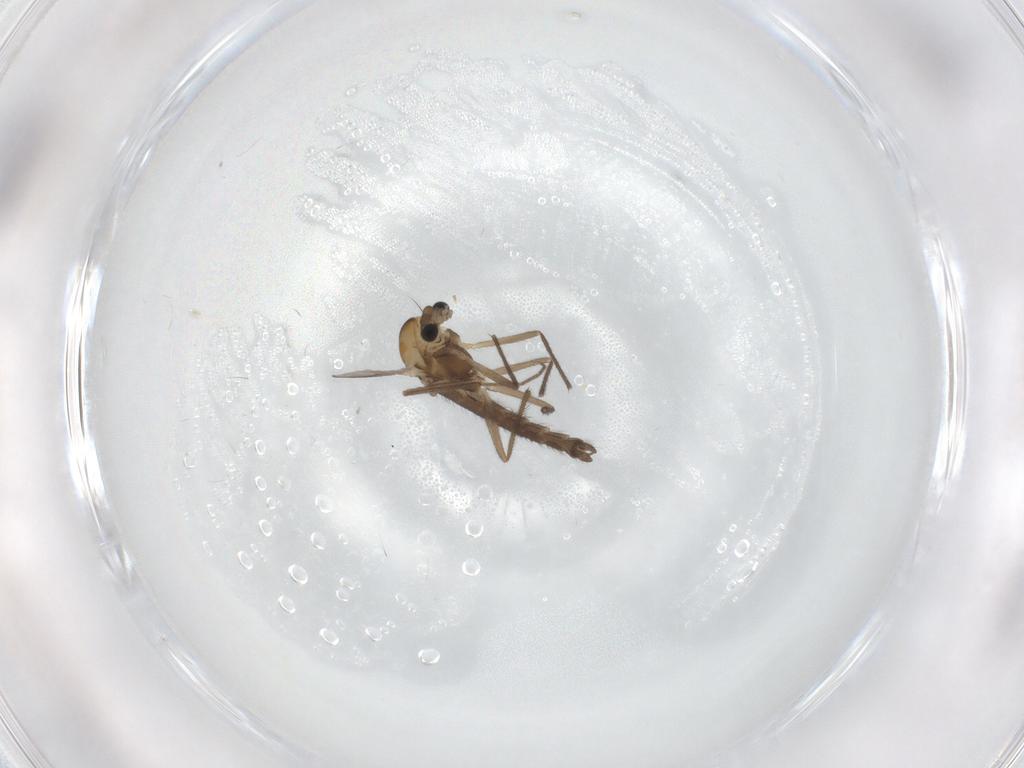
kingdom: Animalia
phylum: Arthropoda
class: Insecta
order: Diptera
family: Chironomidae
